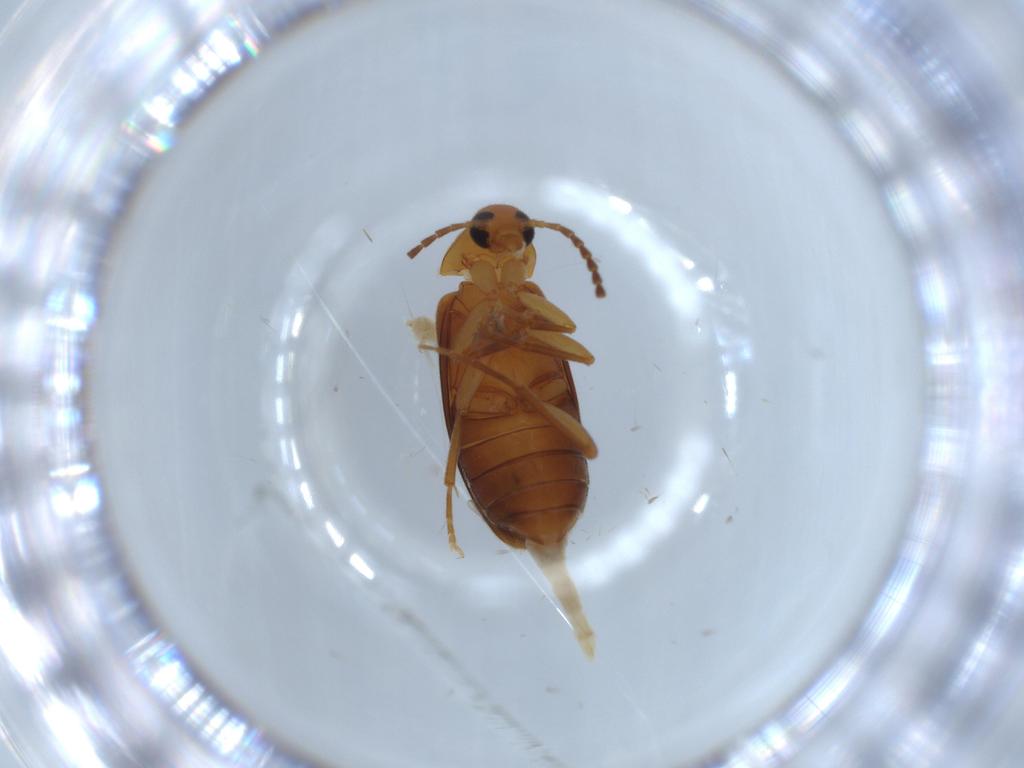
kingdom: Animalia
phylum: Arthropoda
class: Insecta
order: Coleoptera
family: Scraptiidae
